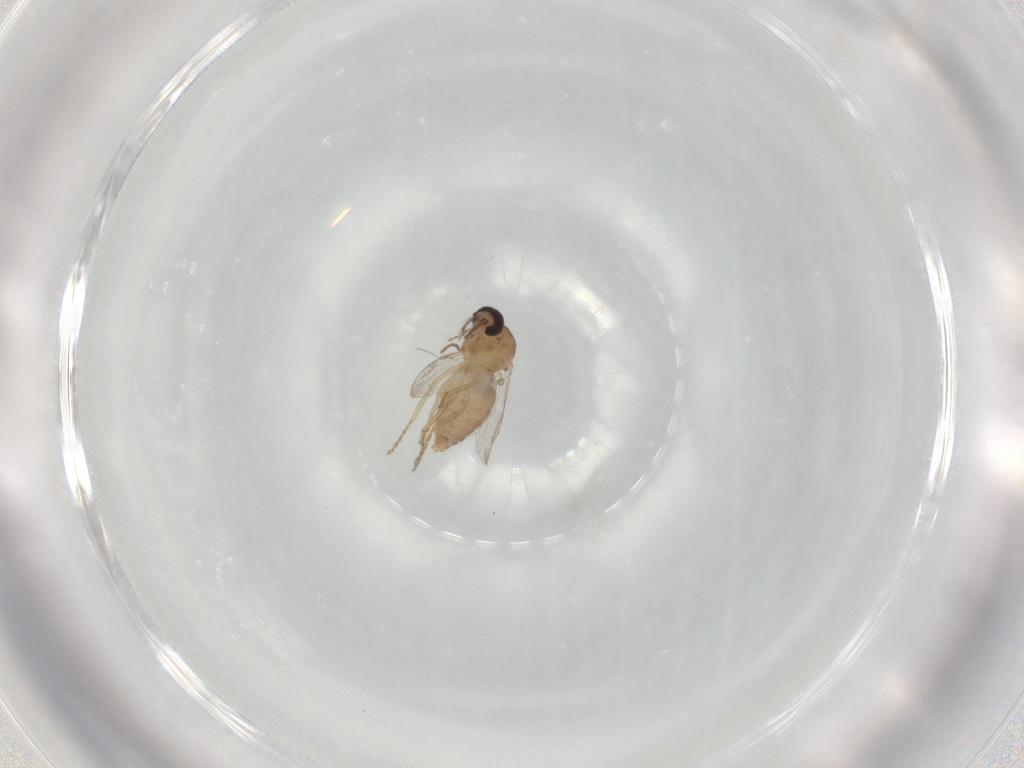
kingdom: Animalia
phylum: Arthropoda
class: Insecta
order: Diptera
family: Ceratopogonidae
